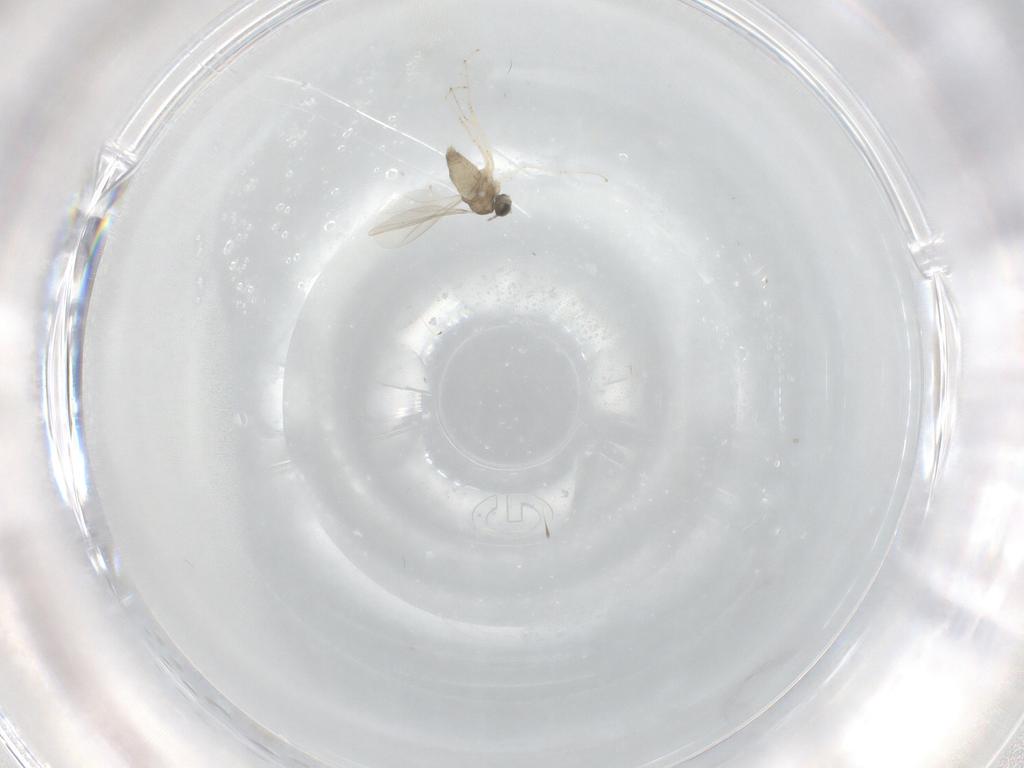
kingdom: Animalia
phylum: Arthropoda
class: Insecta
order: Diptera
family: Cecidomyiidae
